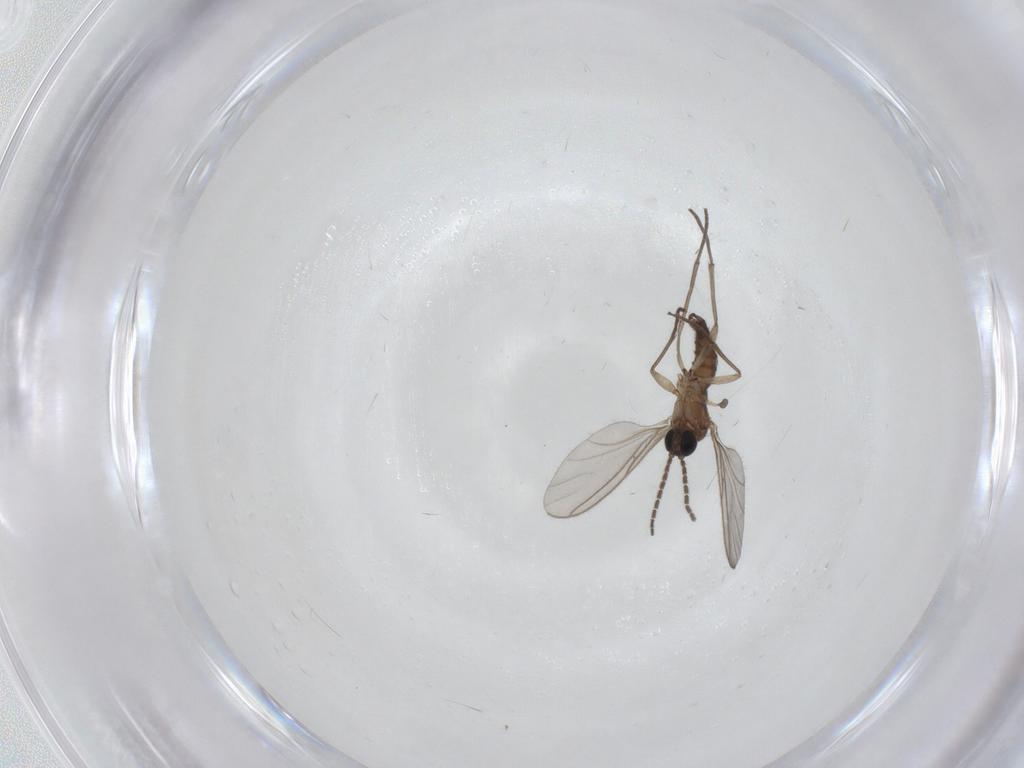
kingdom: Animalia
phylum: Arthropoda
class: Insecta
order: Diptera
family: Sciaridae
